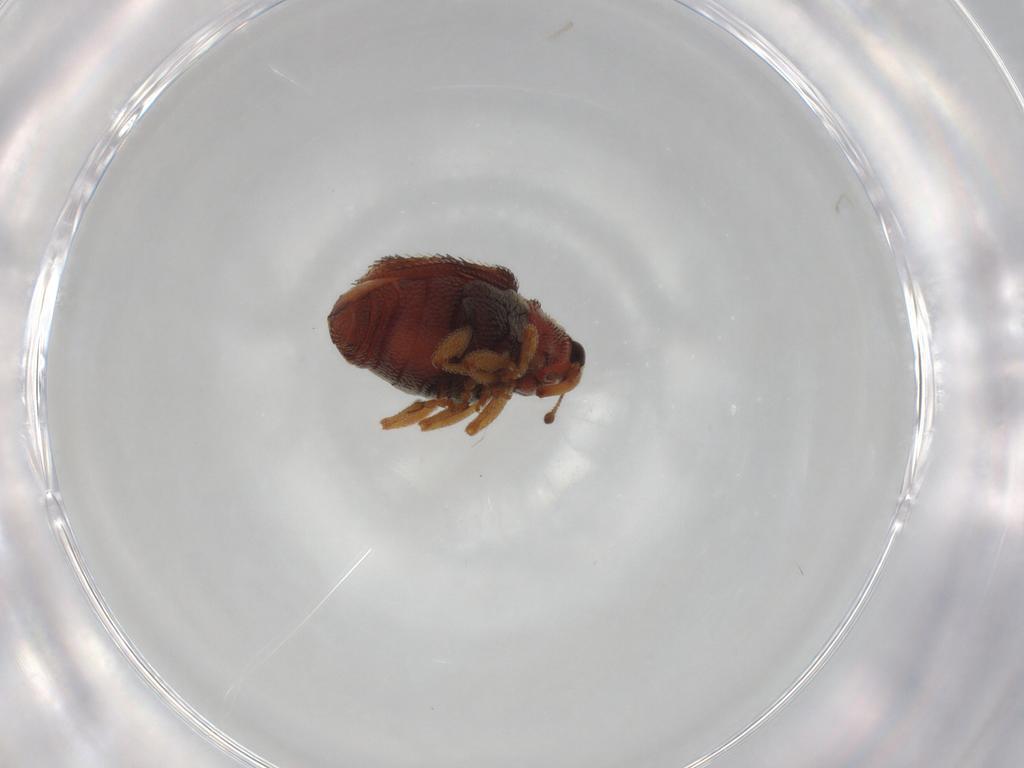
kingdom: Animalia
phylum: Arthropoda
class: Insecta
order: Coleoptera
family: Curculionidae
